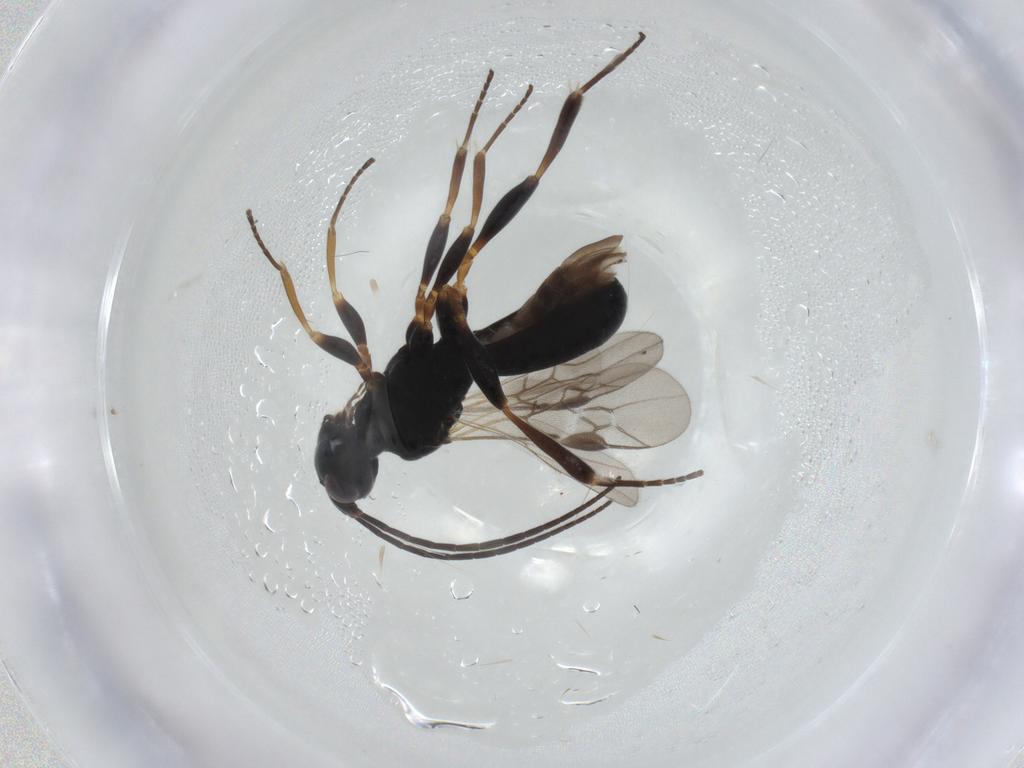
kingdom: Animalia
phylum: Arthropoda
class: Insecta
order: Hymenoptera
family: Braconidae
